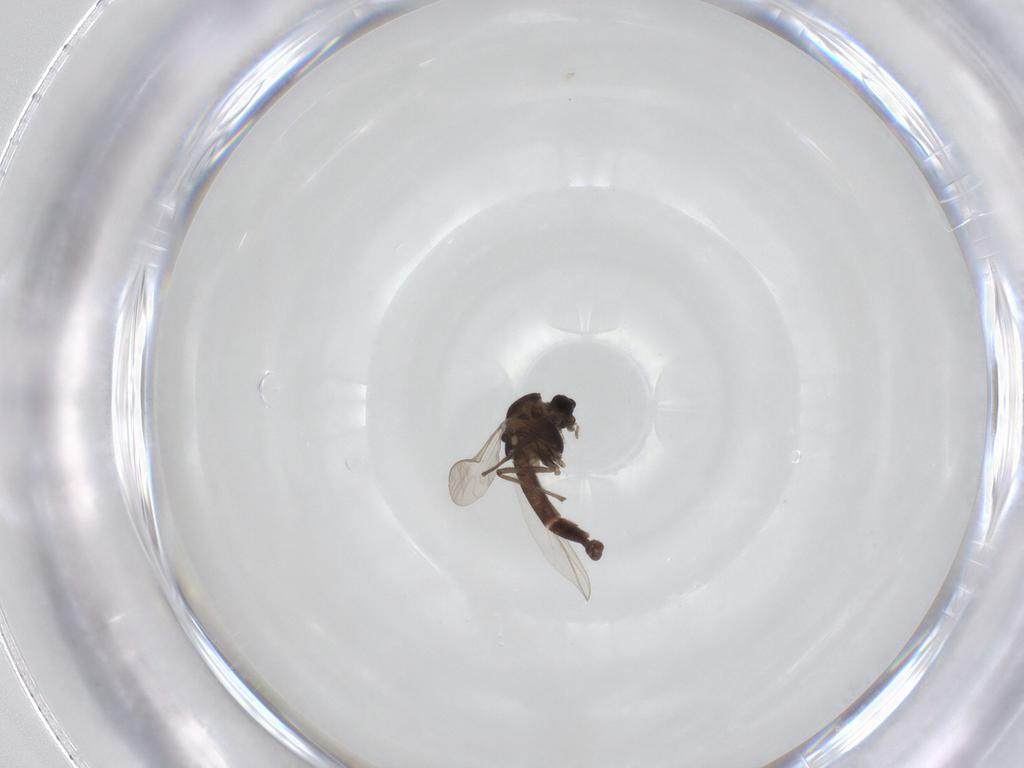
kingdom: Animalia
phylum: Arthropoda
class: Insecta
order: Diptera
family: Chironomidae
